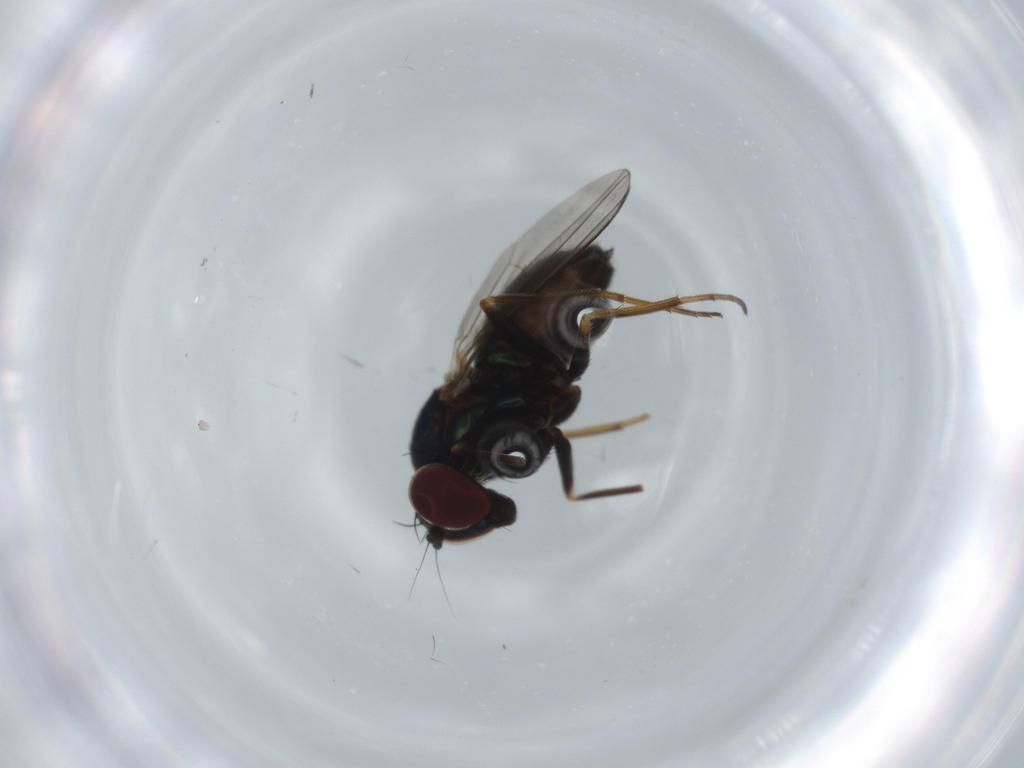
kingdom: Animalia
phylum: Arthropoda
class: Insecta
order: Diptera
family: Dolichopodidae
